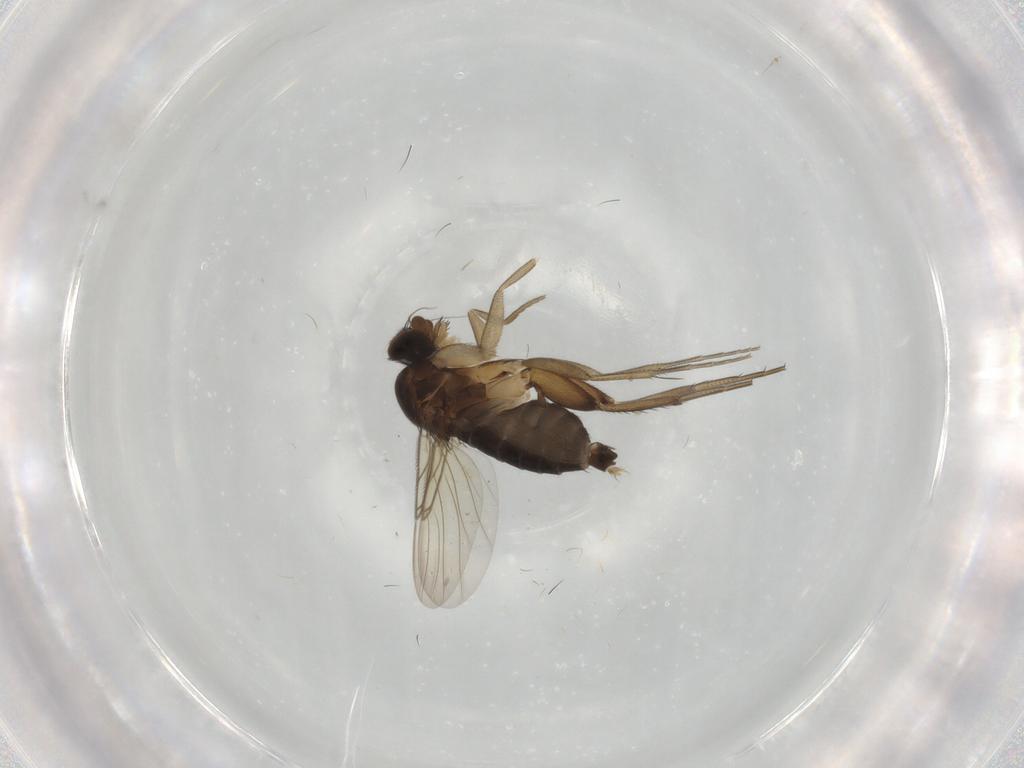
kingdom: Animalia
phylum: Arthropoda
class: Insecta
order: Diptera
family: Phoridae
